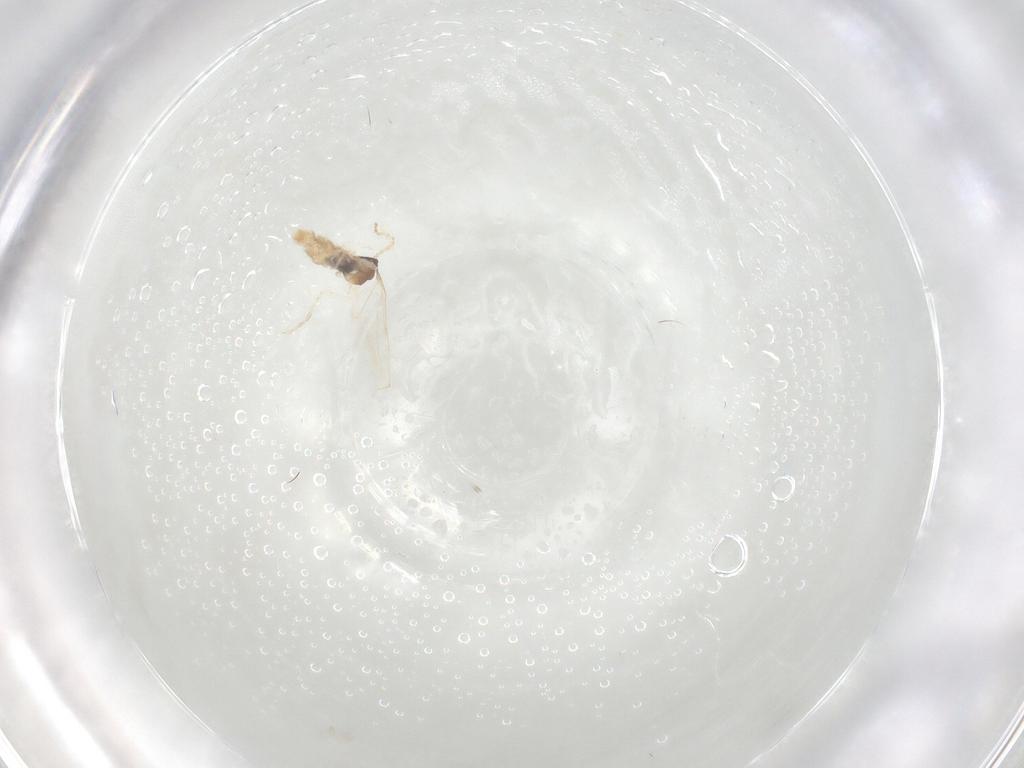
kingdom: Animalia
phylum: Arthropoda
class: Insecta
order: Diptera
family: Cecidomyiidae
